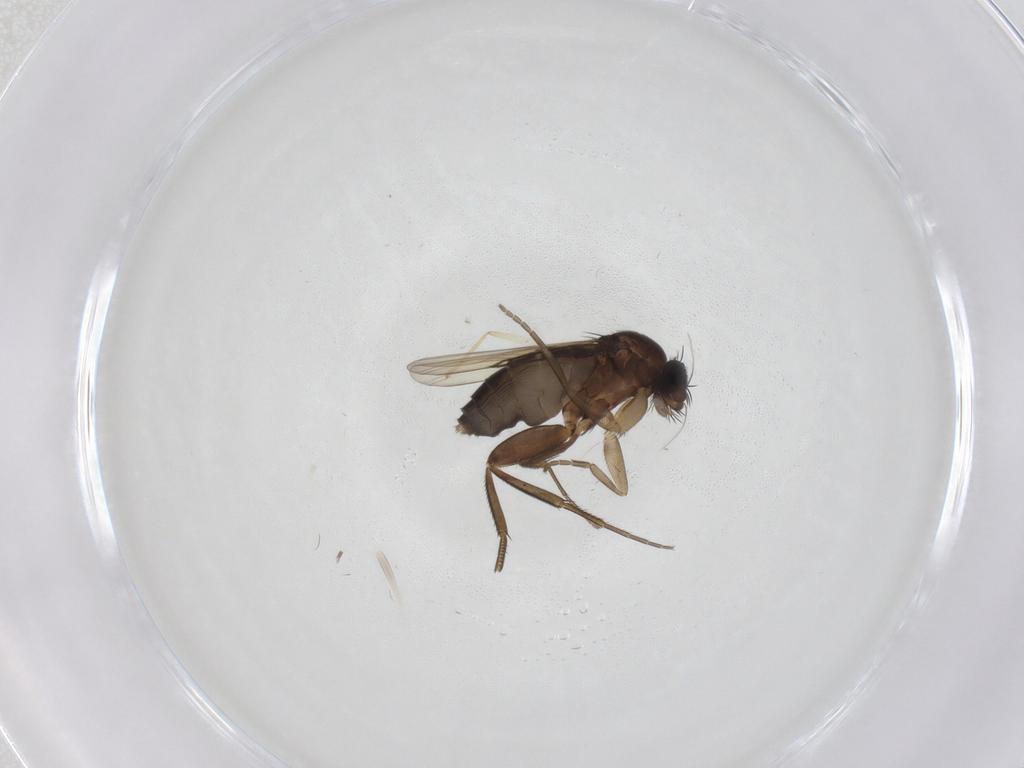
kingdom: Animalia
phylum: Arthropoda
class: Insecta
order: Diptera
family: Phoridae
